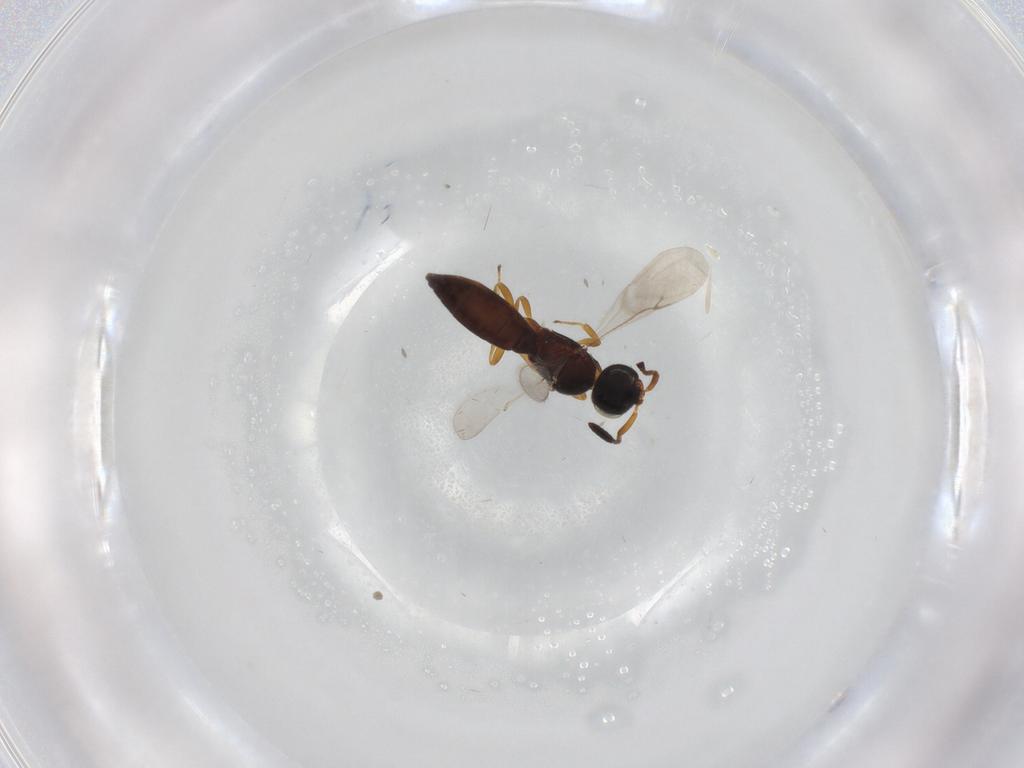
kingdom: Animalia
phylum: Arthropoda
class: Insecta
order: Hymenoptera
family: Scelionidae
